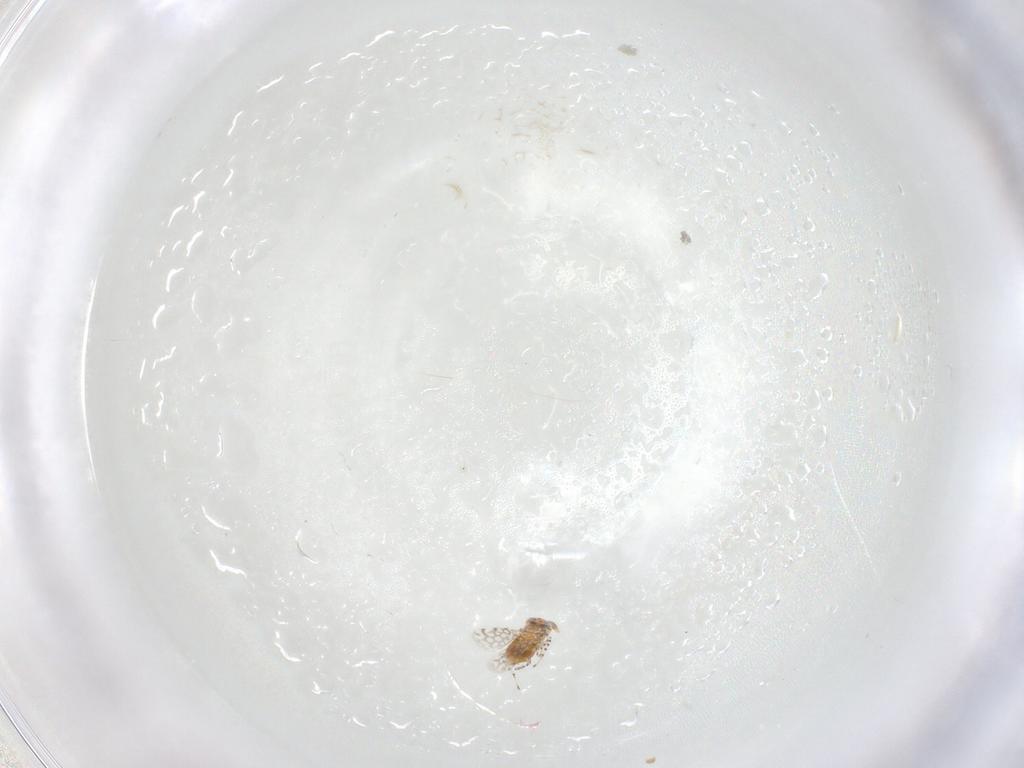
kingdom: Animalia
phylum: Arthropoda
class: Insecta
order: Hymenoptera
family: Aphelinidae
